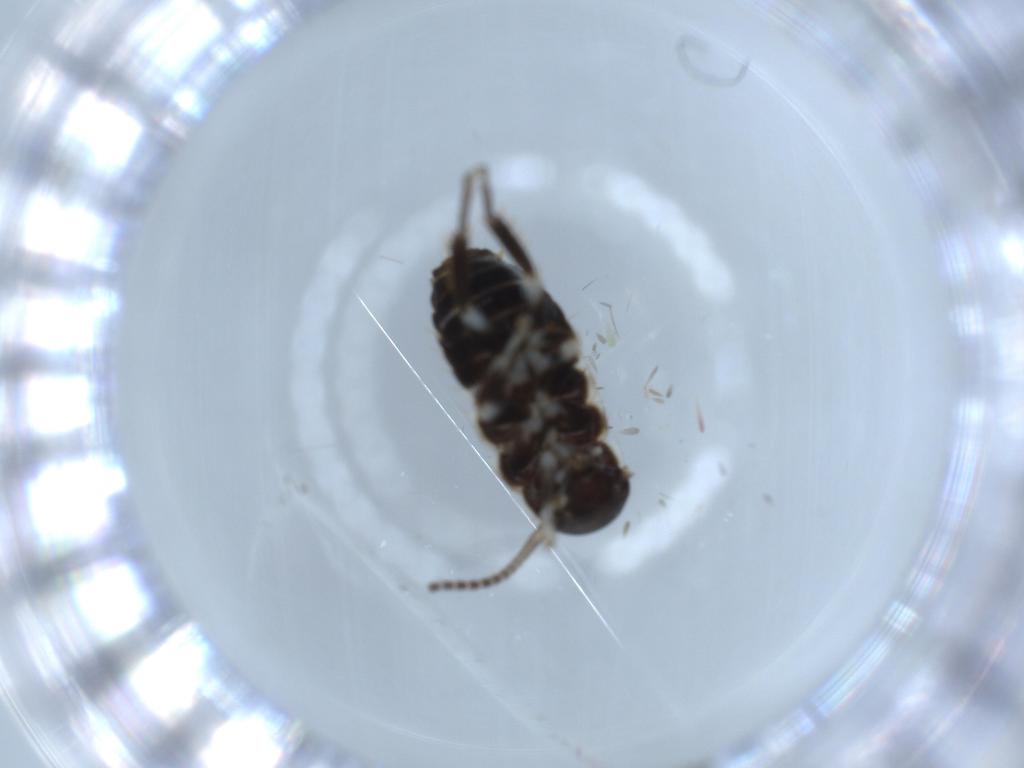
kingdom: Animalia
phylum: Arthropoda
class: Insecta
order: Blattodea
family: Ectobiidae
